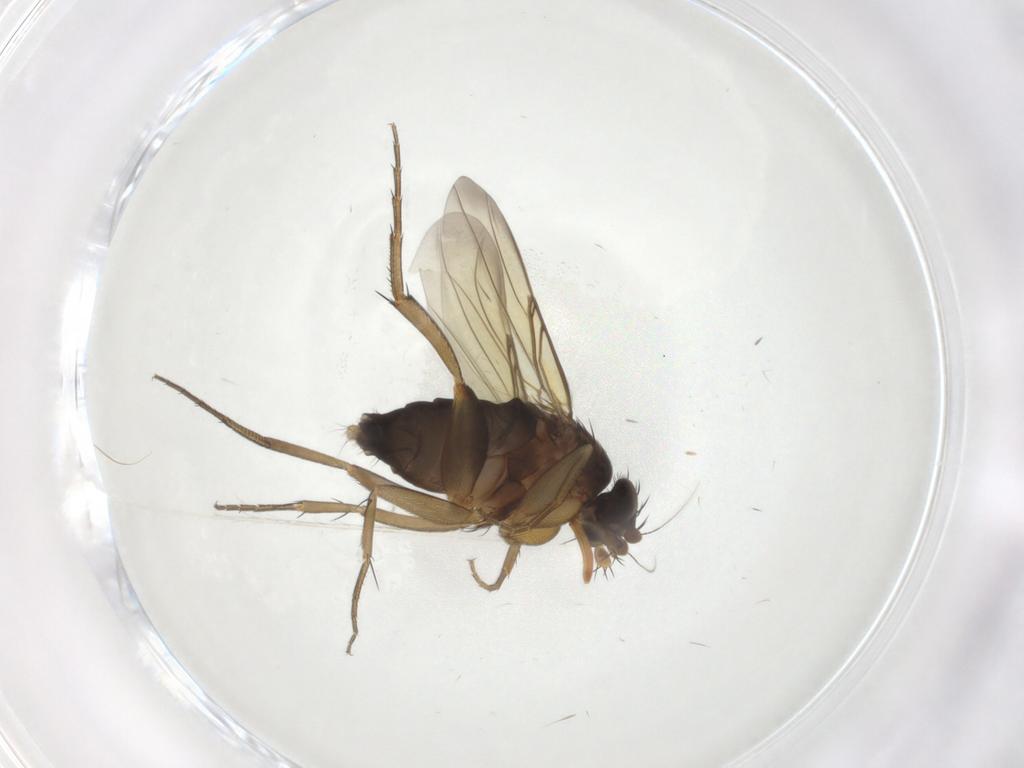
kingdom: Animalia
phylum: Arthropoda
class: Insecta
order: Diptera
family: Phoridae
